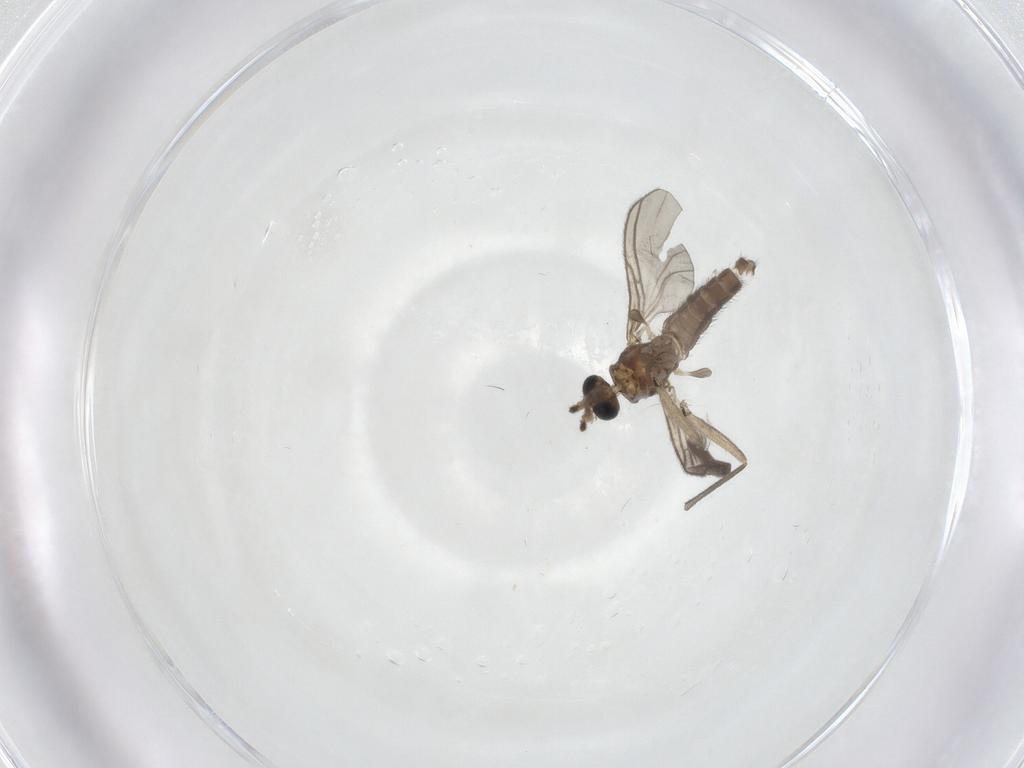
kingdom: Animalia
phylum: Arthropoda
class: Insecta
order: Diptera
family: Sciaridae
